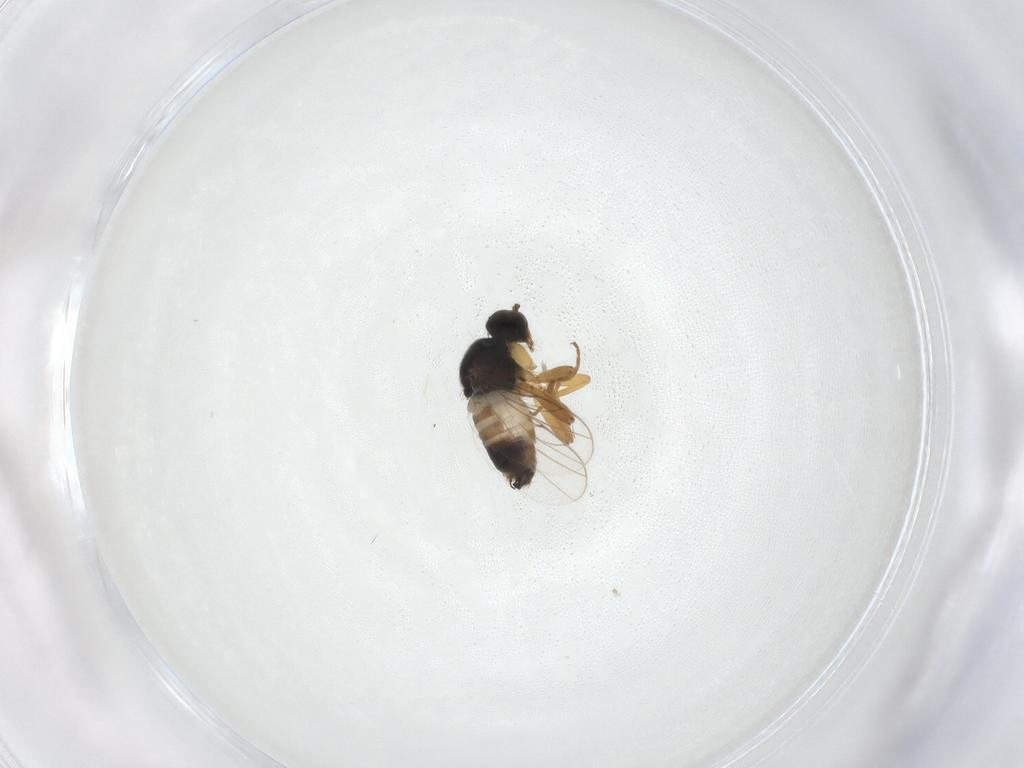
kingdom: Animalia
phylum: Arthropoda
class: Insecta
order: Diptera
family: Hybotidae
